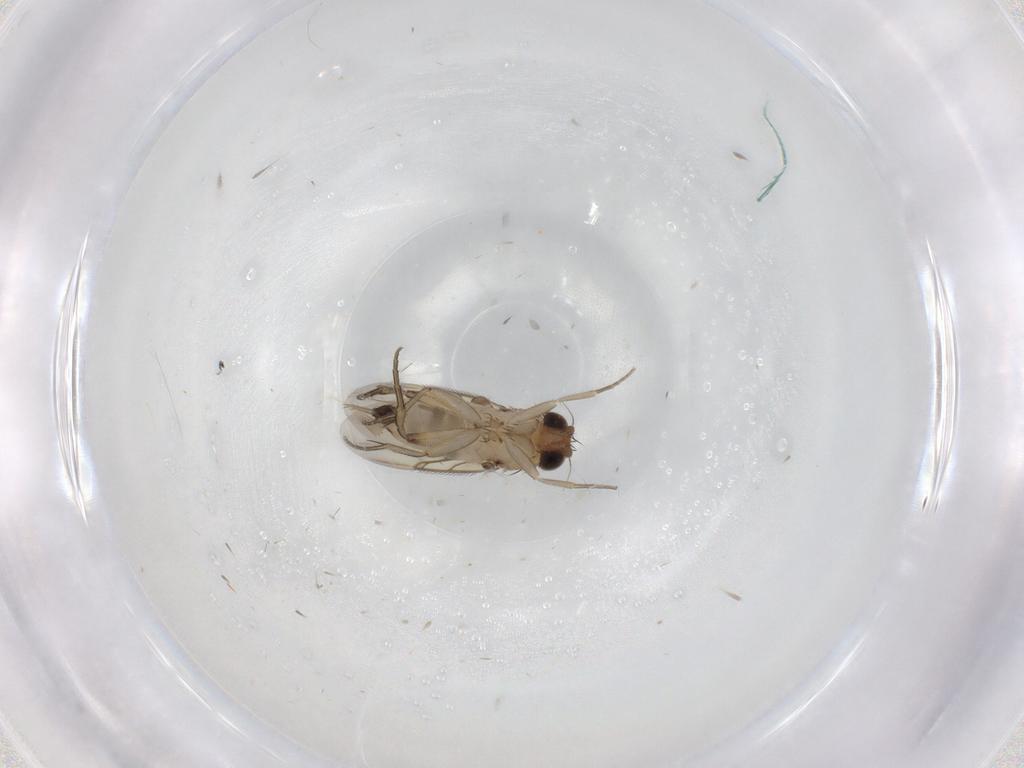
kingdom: Animalia
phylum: Arthropoda
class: Insecta
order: Diptera
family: Phoridae
